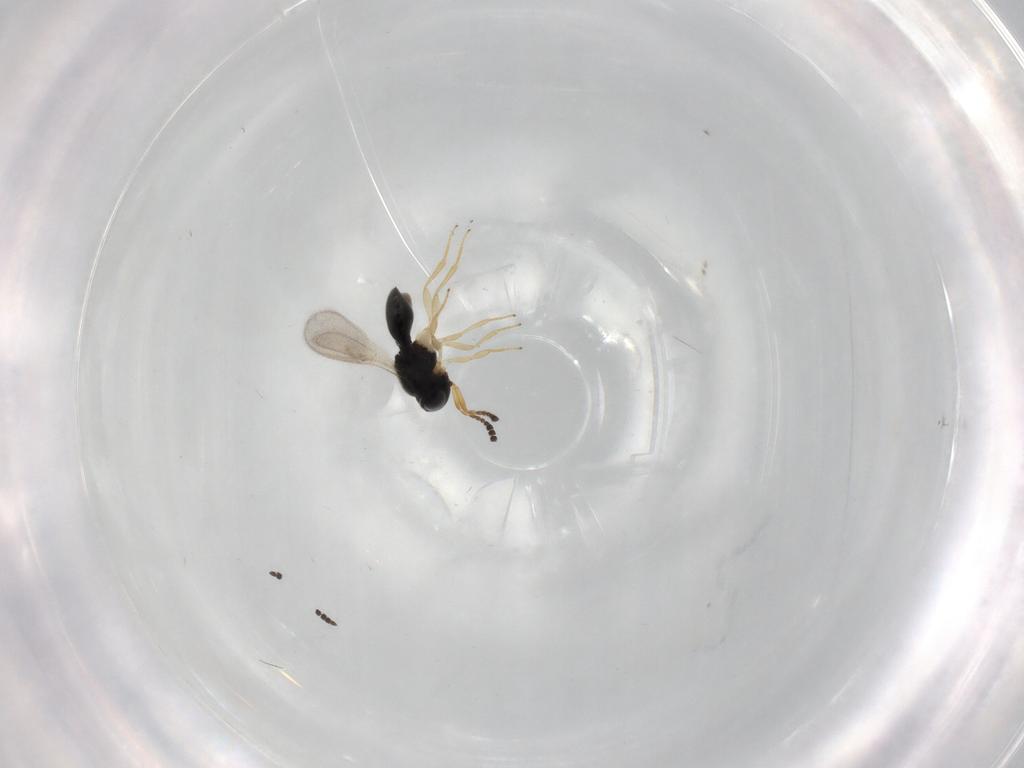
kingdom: Animalia
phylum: Arthropoda
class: Insecta
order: Hymenoptera
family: Scelionidae
